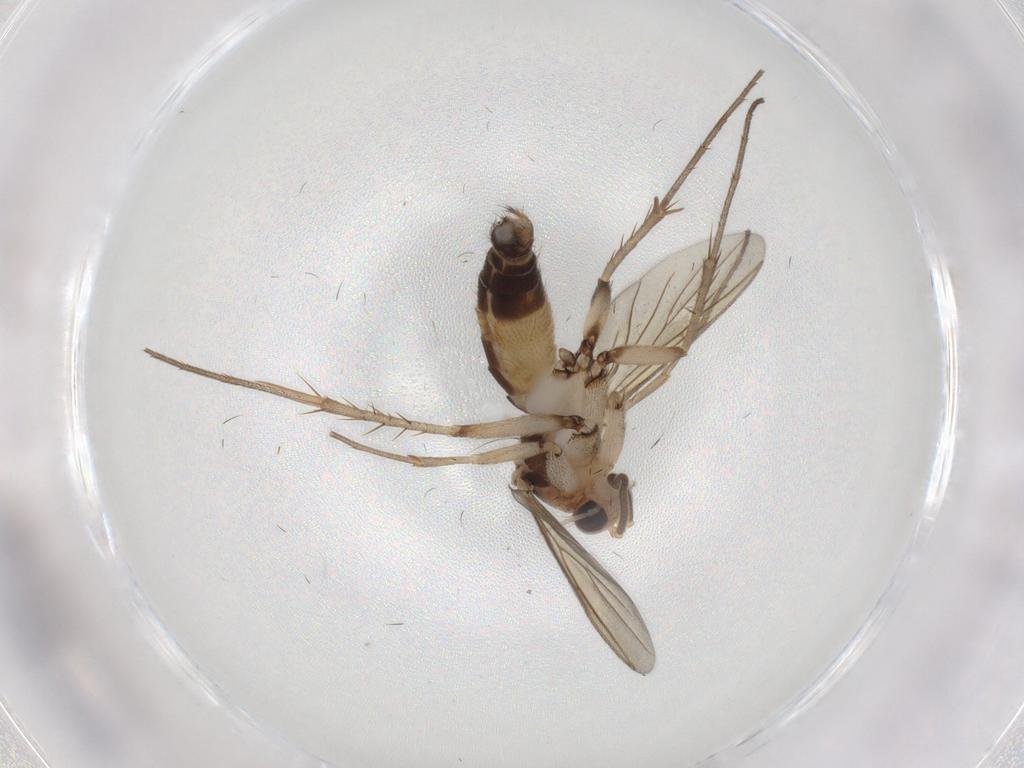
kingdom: Animalia
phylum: Arthropoda
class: Insecta
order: Diptera
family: Mycetophilidae
